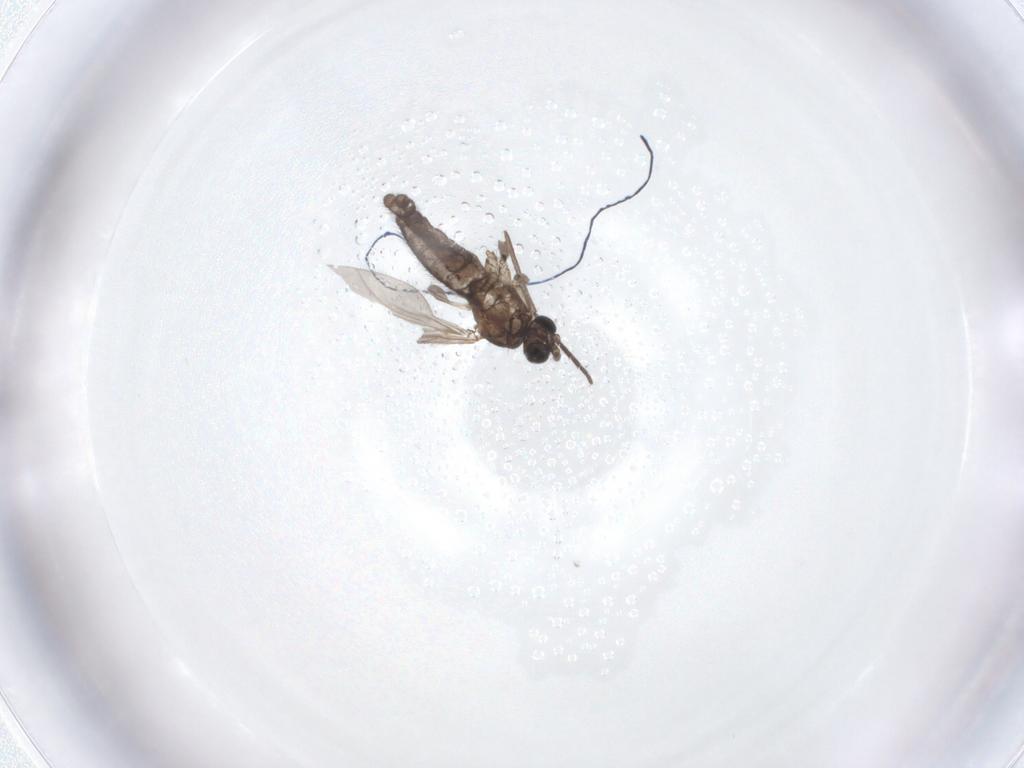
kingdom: Animalia
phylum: Arthropoda
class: Insecta
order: Diptera
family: Sciaridae
